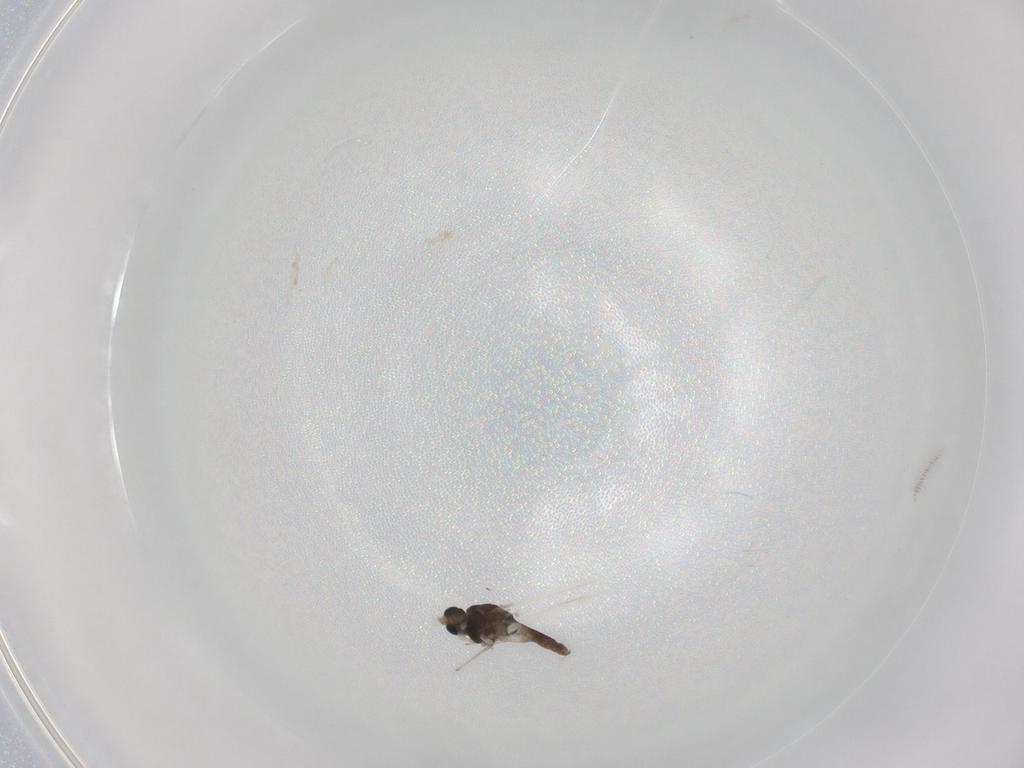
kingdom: Animalia
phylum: Arthropoda
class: Insecta
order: Diptera
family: Chironomidae
